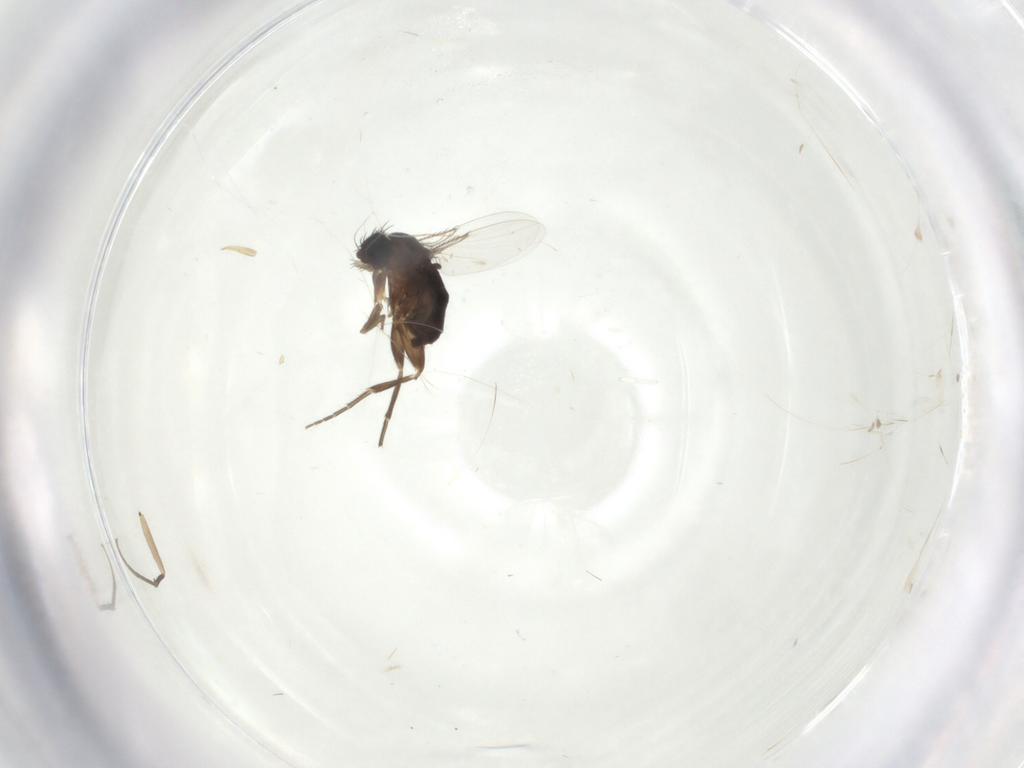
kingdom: Animalia
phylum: Arthropoda
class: Insecta
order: Diptera
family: Phoridae
